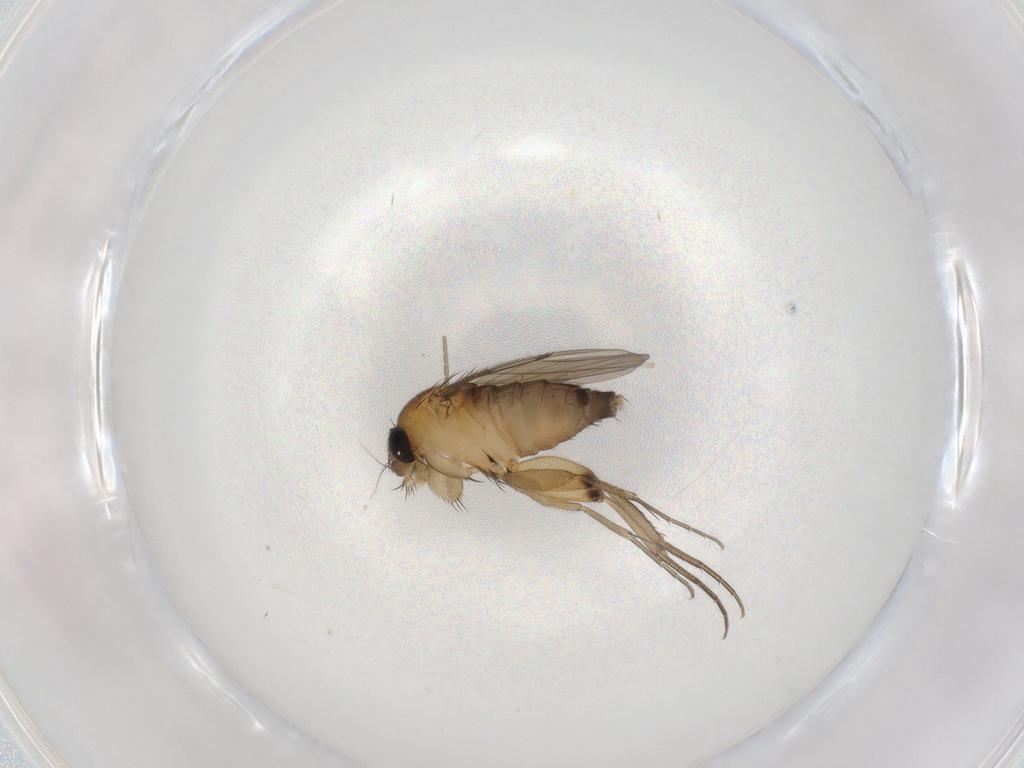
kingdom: Animalia
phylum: Arthropoda
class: Insecta
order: Diptera
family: Phoridae
